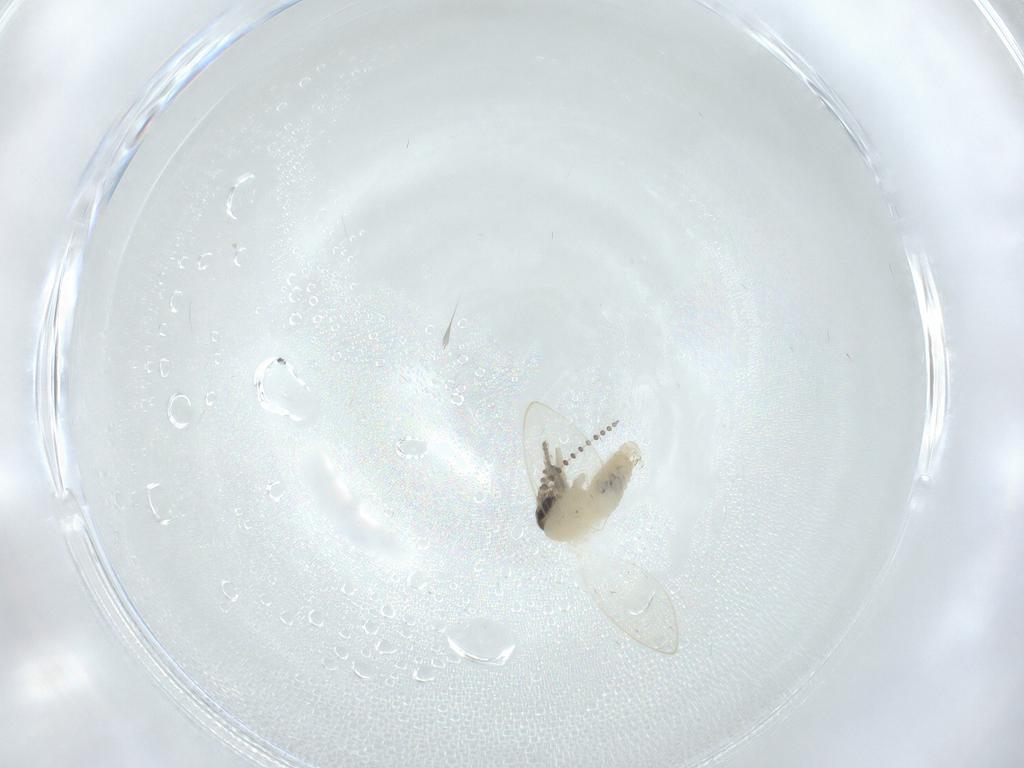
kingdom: Animalia
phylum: Arthropoda
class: Insecta
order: Diptera
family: Psychodidae
